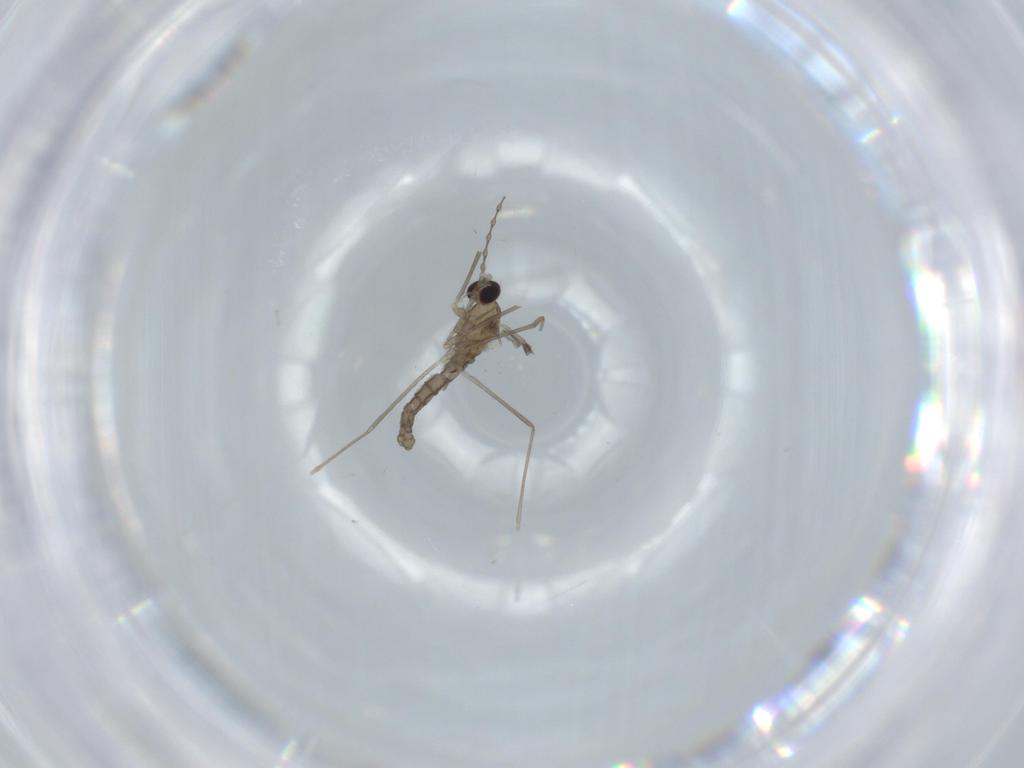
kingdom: Animalia
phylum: Arthropoda
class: Insecta
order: Diptera
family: Cecidomyiidae
